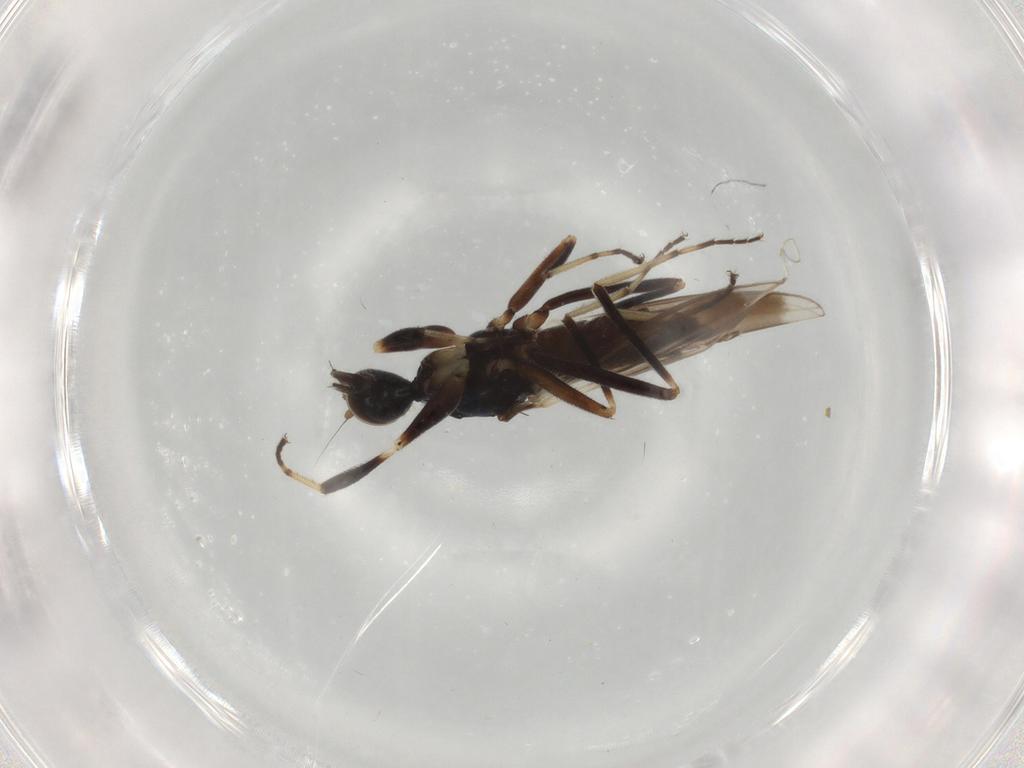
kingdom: Animalia
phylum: Arthropoda
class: Insecta
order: Diptera
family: Hybotidae
